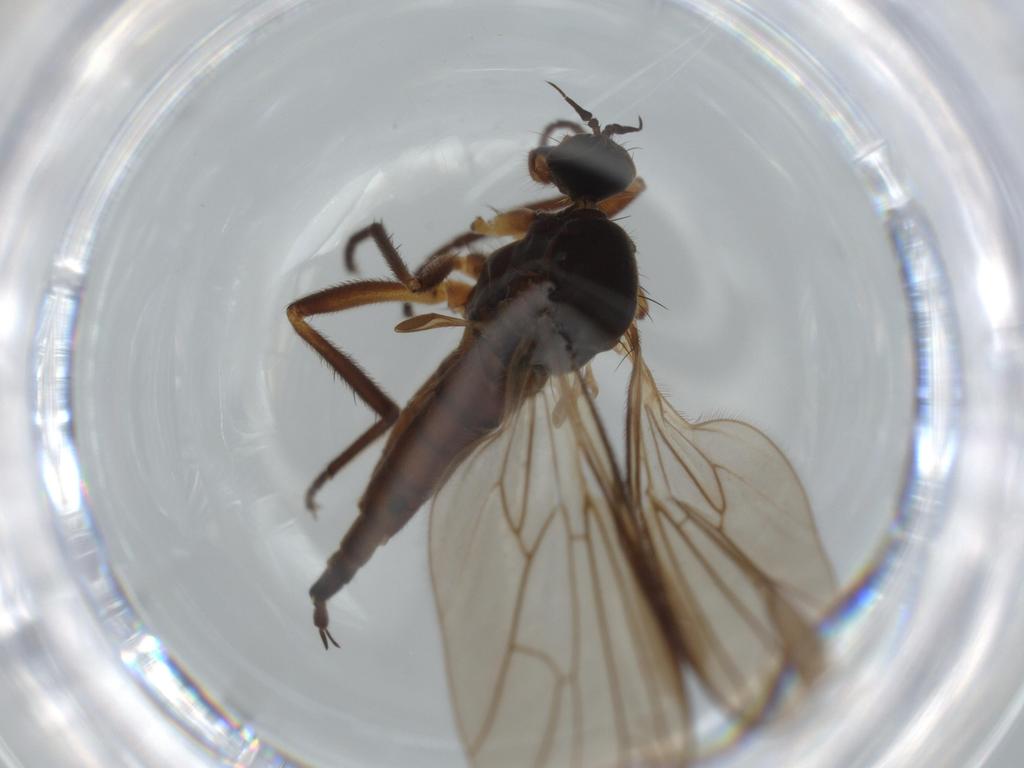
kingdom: Animalia
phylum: Arthropoda
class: Insecta
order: Diptera
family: Empididae
